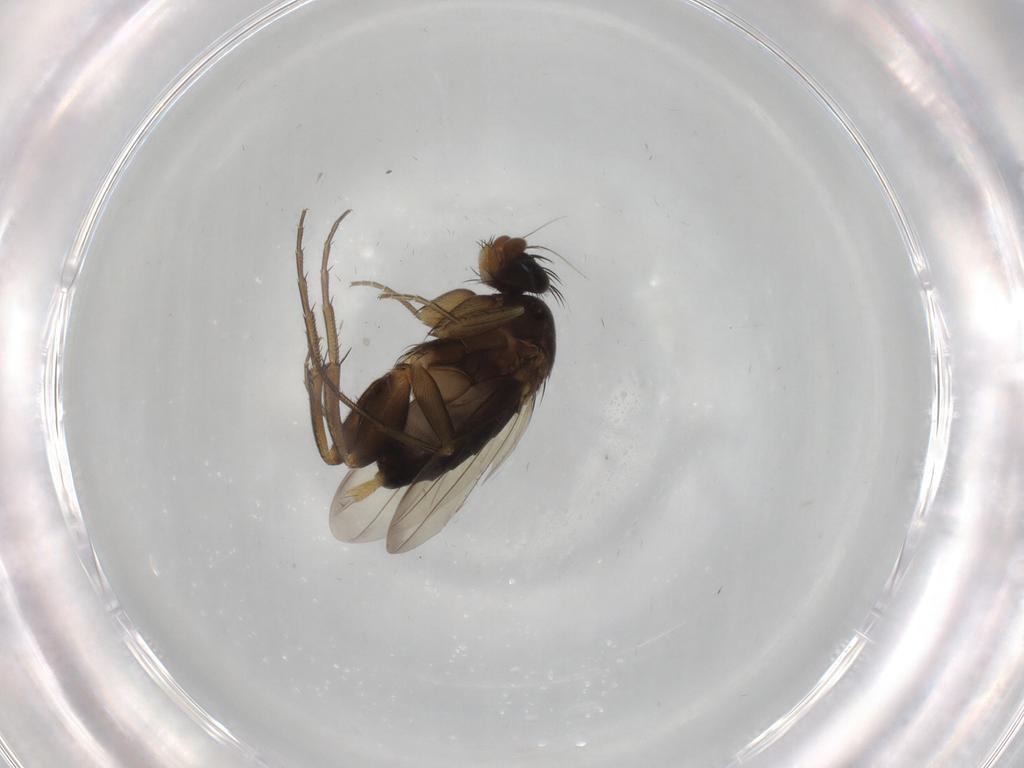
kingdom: Animalia
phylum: Arthropoda
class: Insecta
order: Diptera
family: Phoridae
